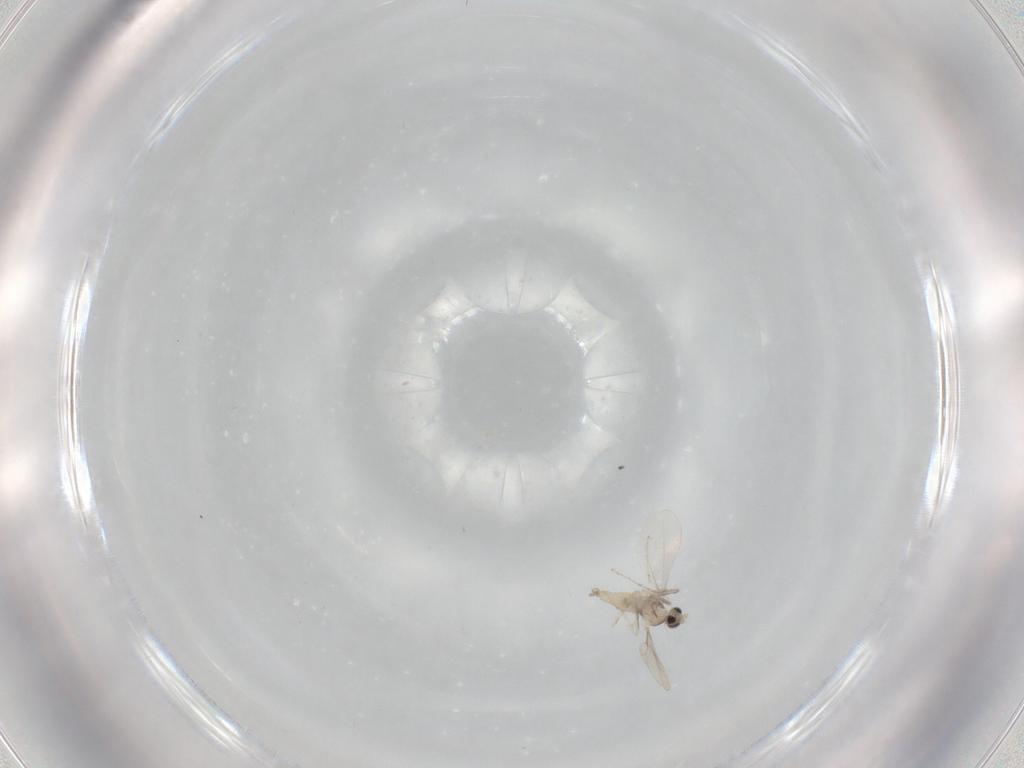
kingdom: Animalia
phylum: Arthropoda
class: Insecta
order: Diptera
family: Cecidomyiidae
